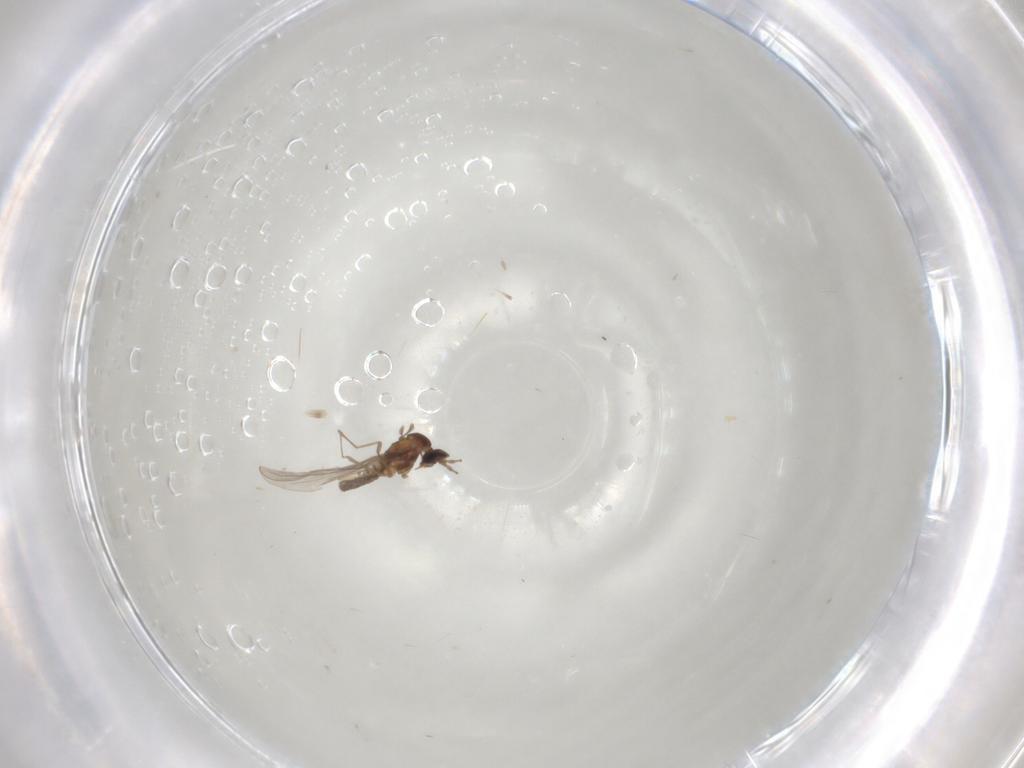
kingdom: Animalia
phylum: Arthropoda
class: Insecta
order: Diptera
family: Cecidomyiidae
